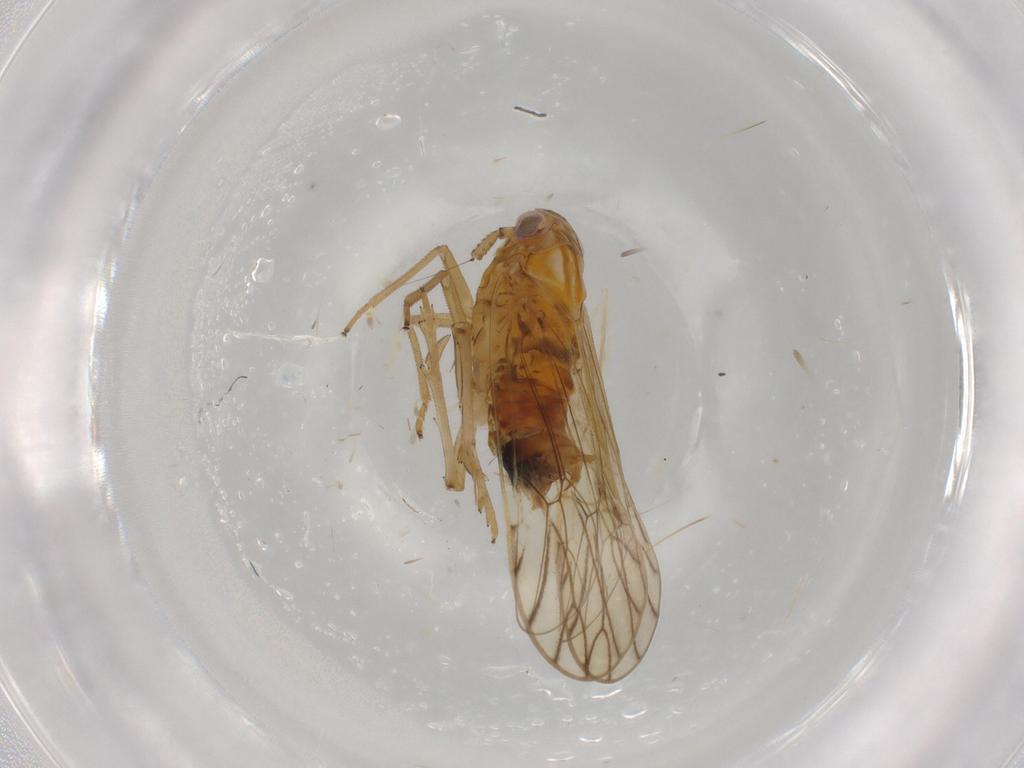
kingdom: Animalia
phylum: Arthropoda
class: Insecta
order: Hemiptera
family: Delphacidae
